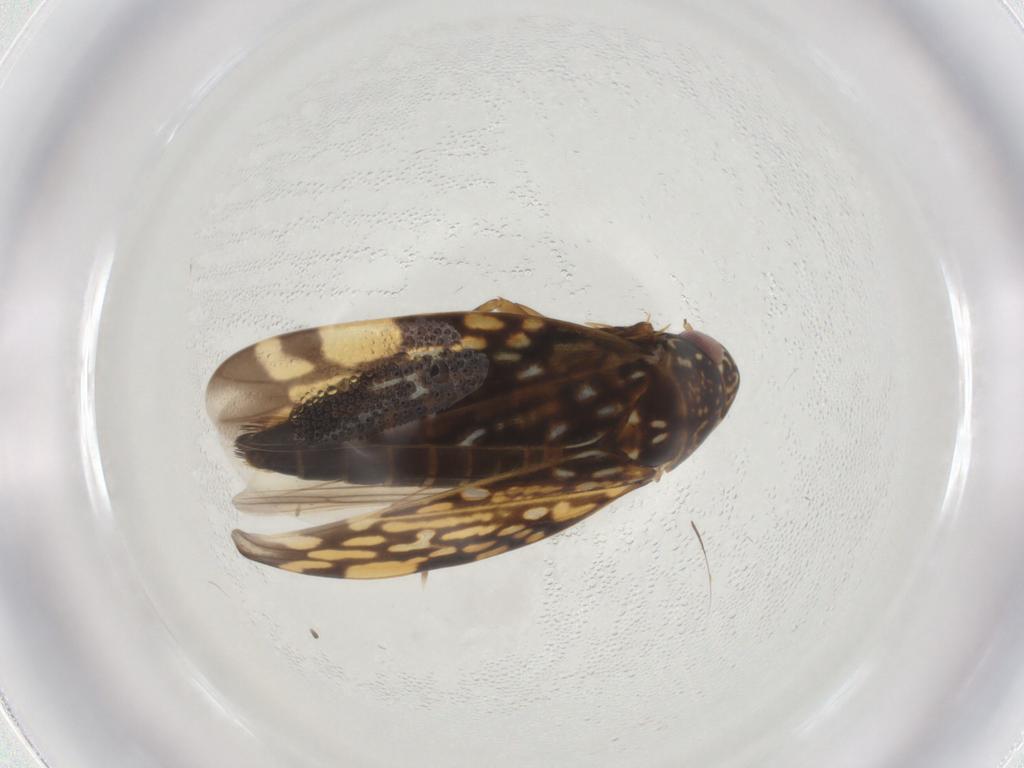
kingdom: Animalia
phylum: Arthropoda
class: Insecta
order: Hemiptera
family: Cicadellidae
